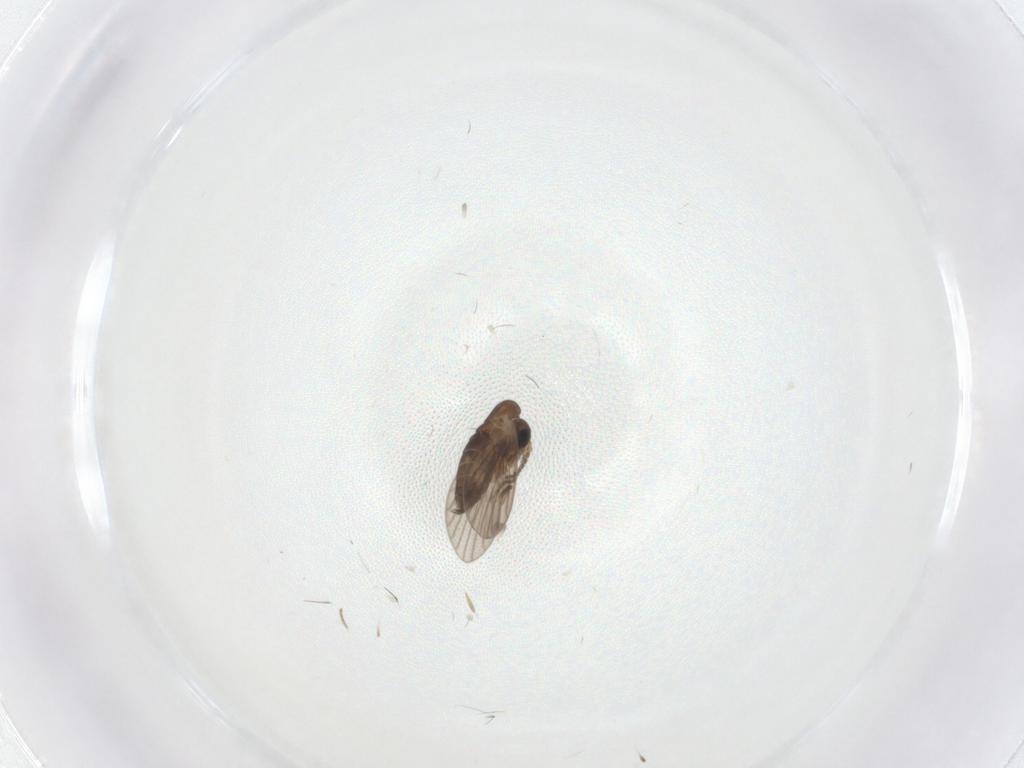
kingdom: Animalia
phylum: Arthropoda
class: Insecta
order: Diptera
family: Phoridae
